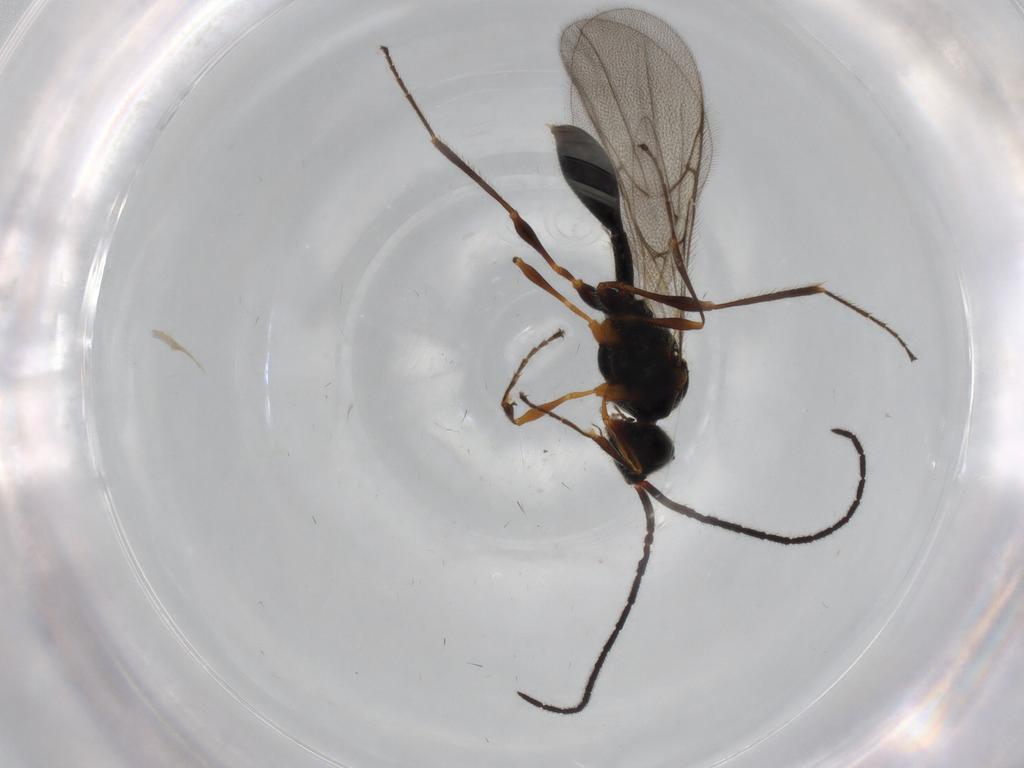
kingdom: Animalia
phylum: Arthropoda
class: Insecta
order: Hymenoptera
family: Diapriidae
